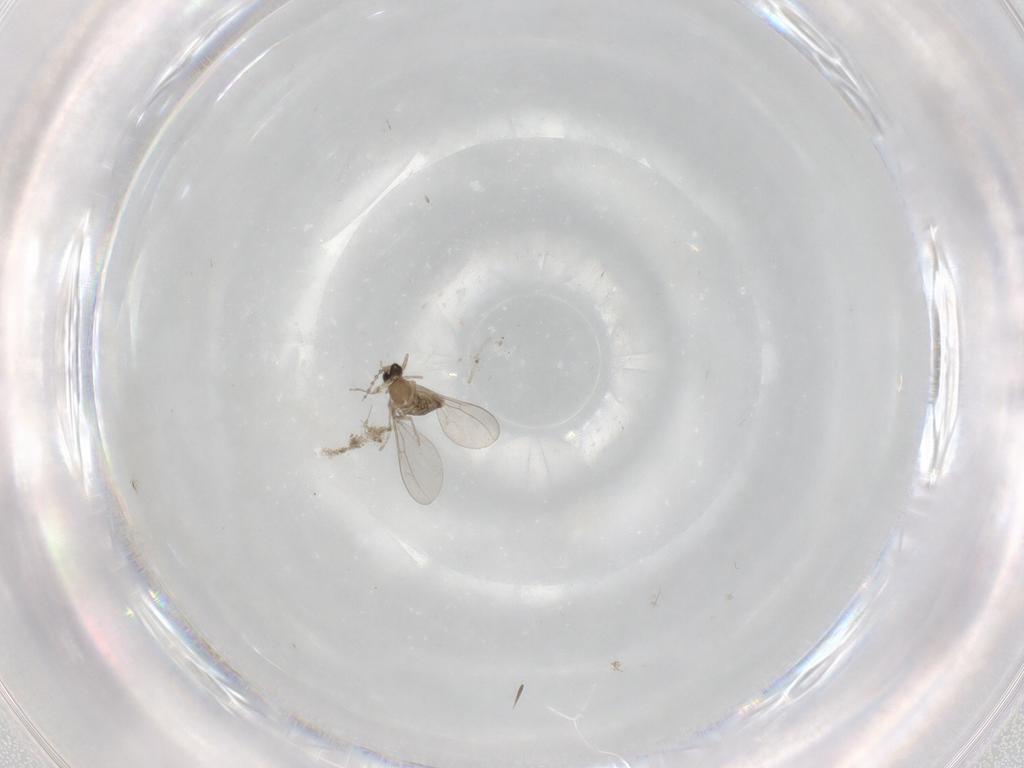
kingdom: Animalia
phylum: Arthropoda
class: Insecta
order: Diptera
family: Cecidomyiidae
